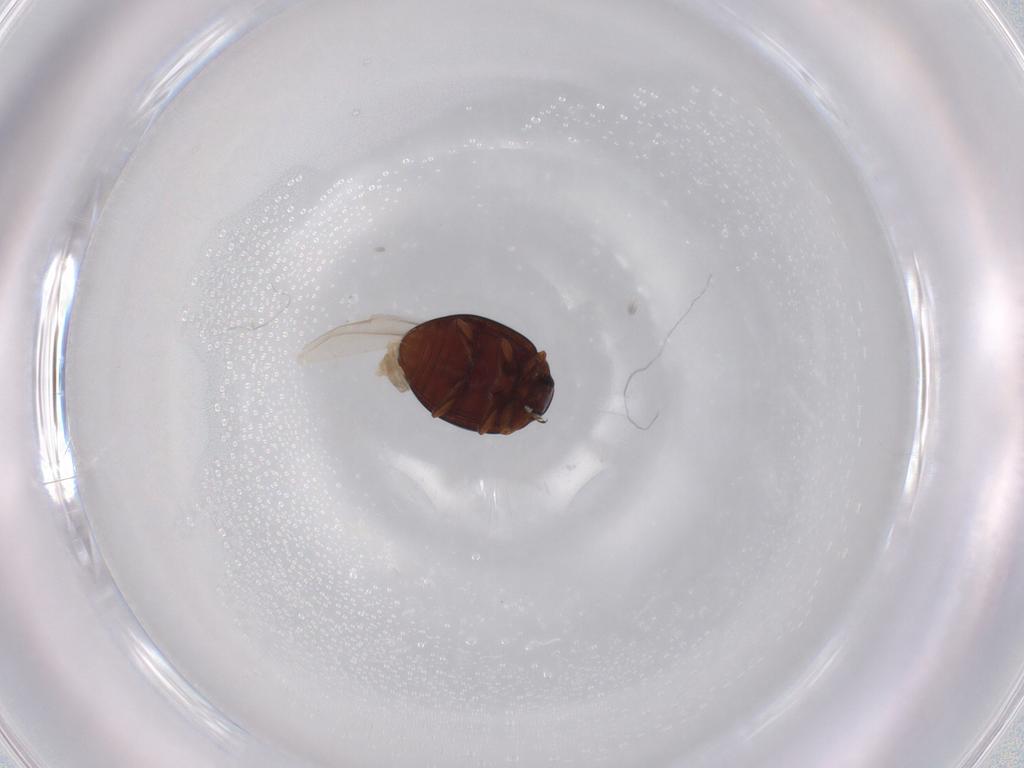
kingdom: Animalia
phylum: Arthropoda
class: Insecta
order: Coleoptera
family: Coccinellidae
